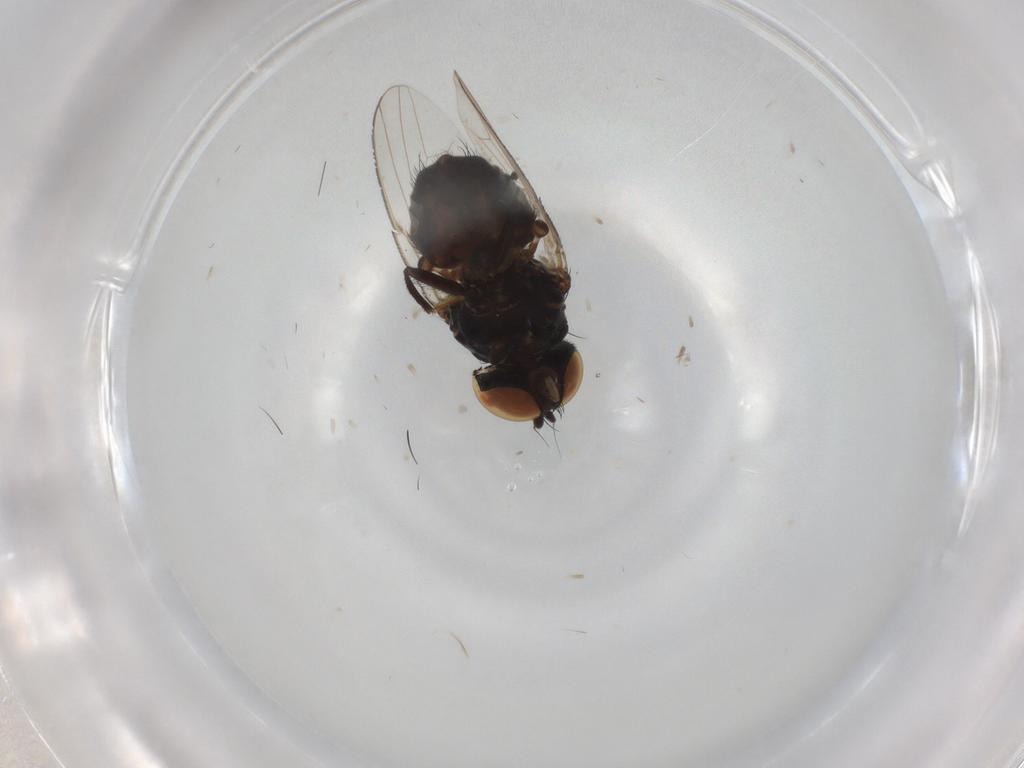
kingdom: Animalia
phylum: Arthropoda
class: Insecta
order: Diptera
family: Milichiidae
